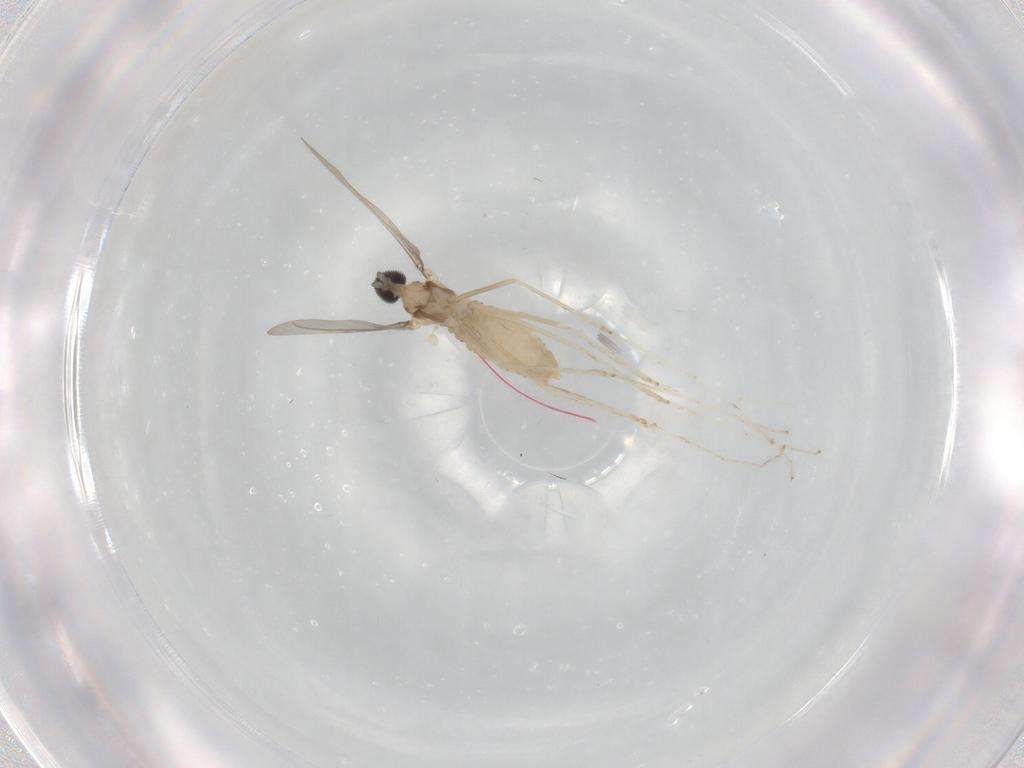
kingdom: Animalia
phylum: Arthropoda
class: Insecta
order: Diptera
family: Cecidomyiidae
